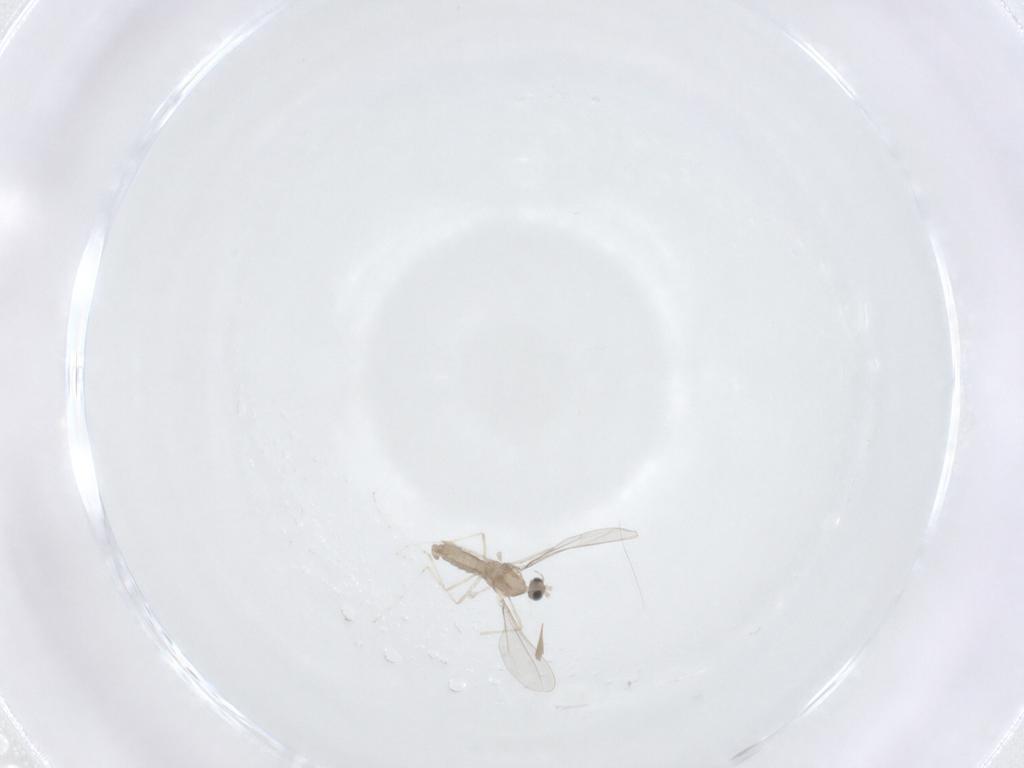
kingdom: Animalia
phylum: Arthropoda
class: Insecta
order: Diptera
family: Cecidomyiidae
